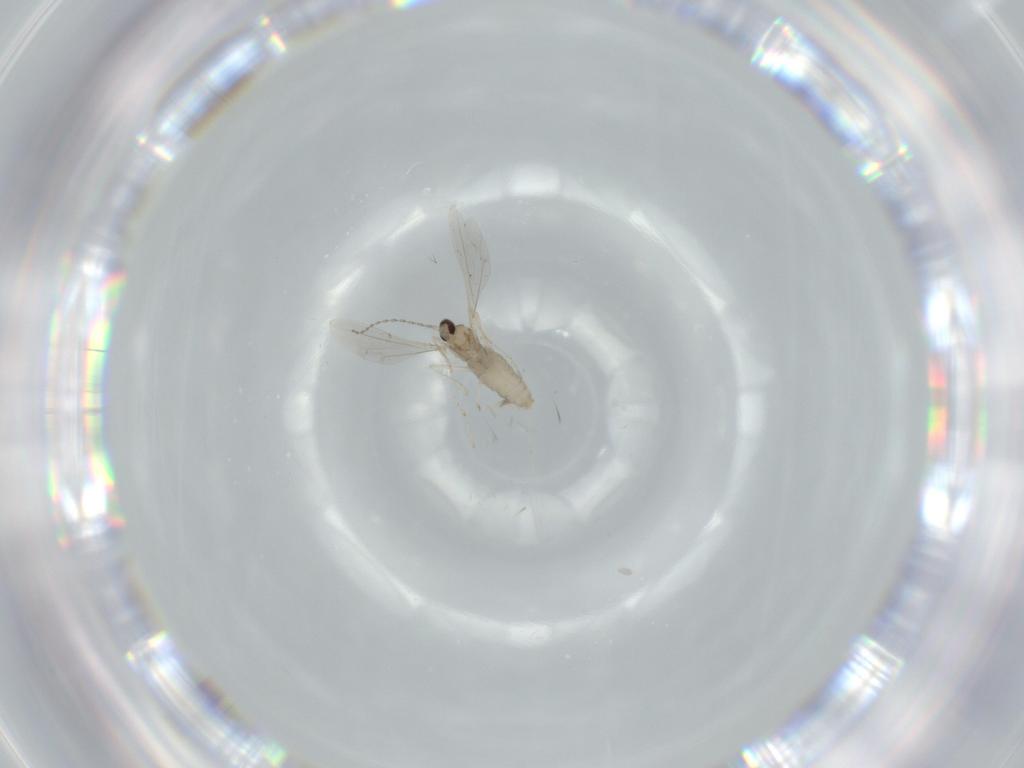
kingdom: Animalia
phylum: Arthropoda
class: Insecta
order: Diptera
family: Cecidomyiidae
